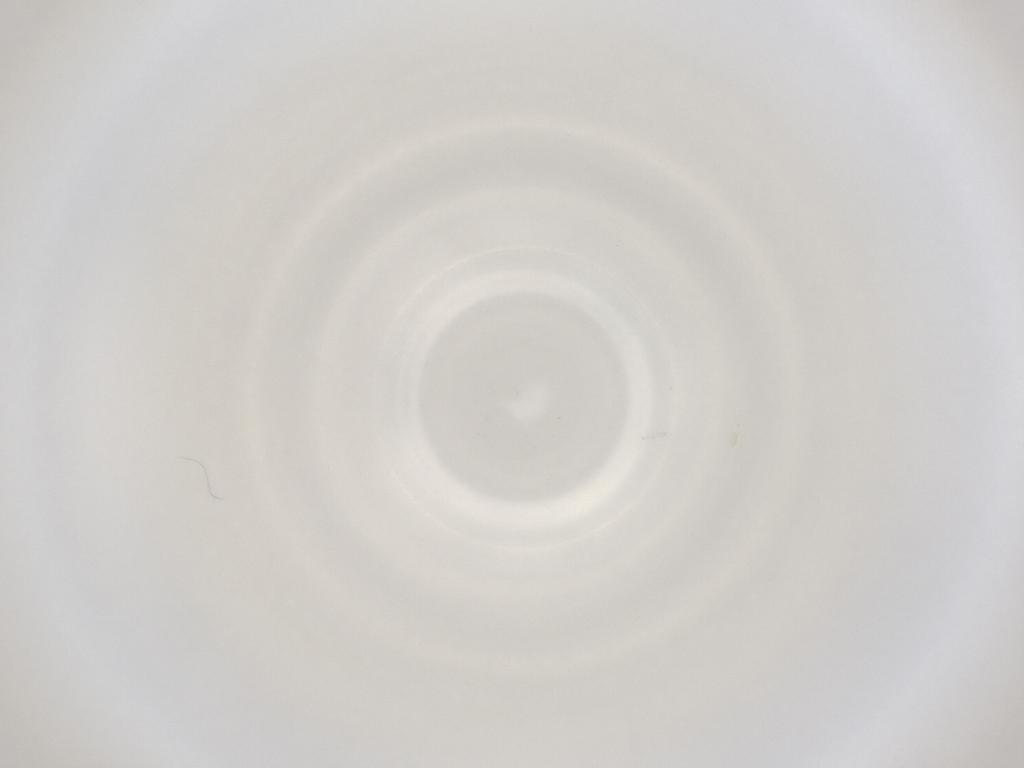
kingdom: Animalia
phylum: Arthropoda
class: Insecta
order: Diptera
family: Cecidomyiidae
